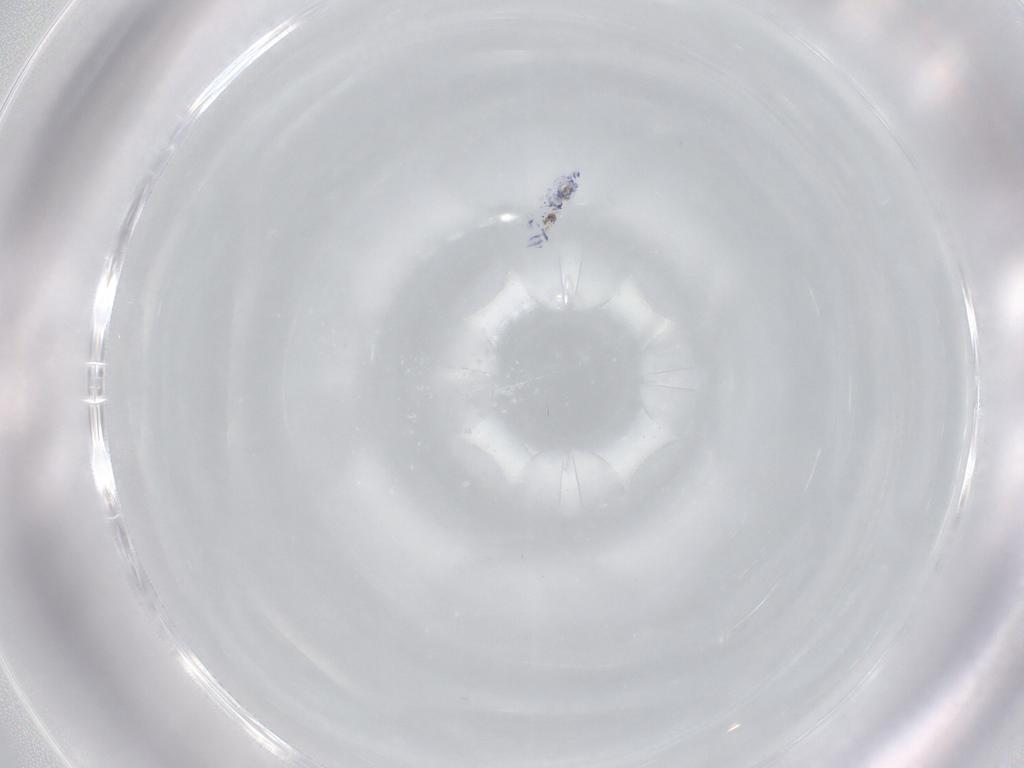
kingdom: Animalia
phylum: Arthropoda
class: Collembola
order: Entomobryomorpha
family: Entomobryidae
